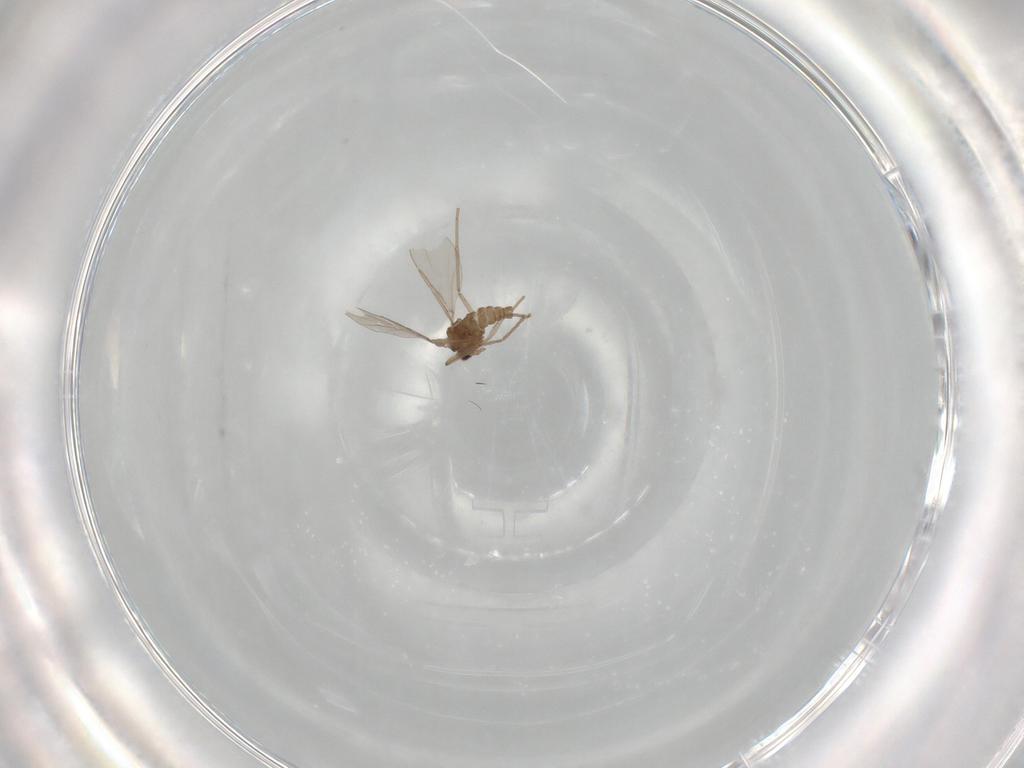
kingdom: Animalia
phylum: Arthropoda
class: Insecta
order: Diptera
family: Cecidomyiidae
